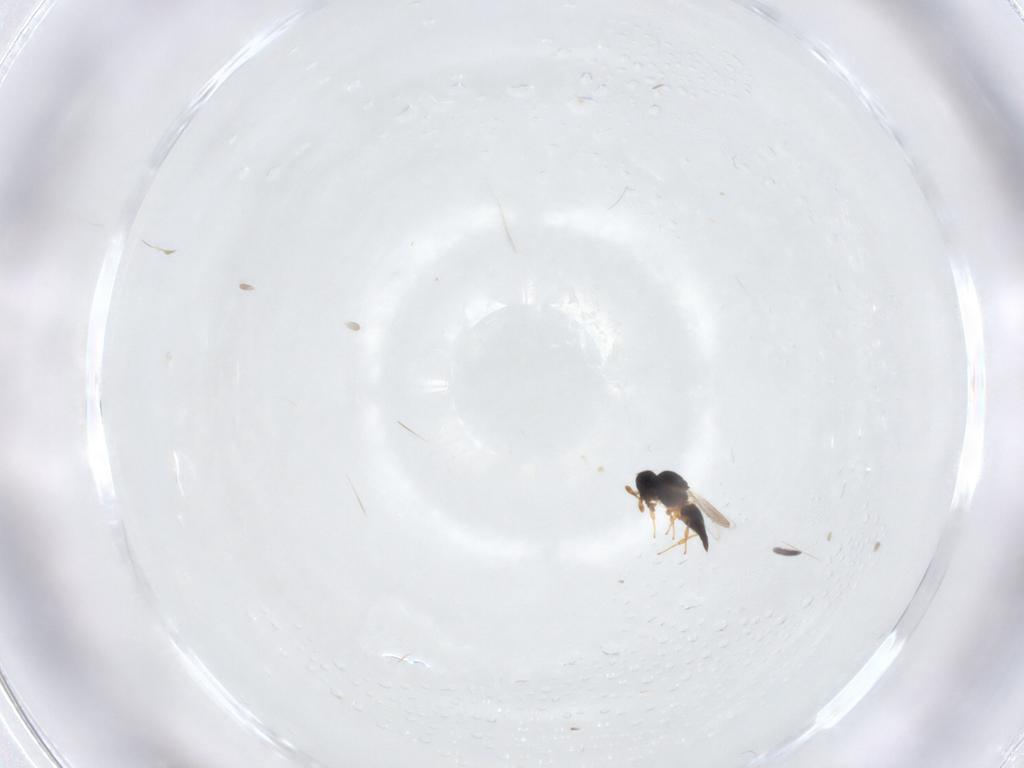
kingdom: Animalia
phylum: Arthropoda
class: Insecta
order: Hymenoptera
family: Platygastridae
